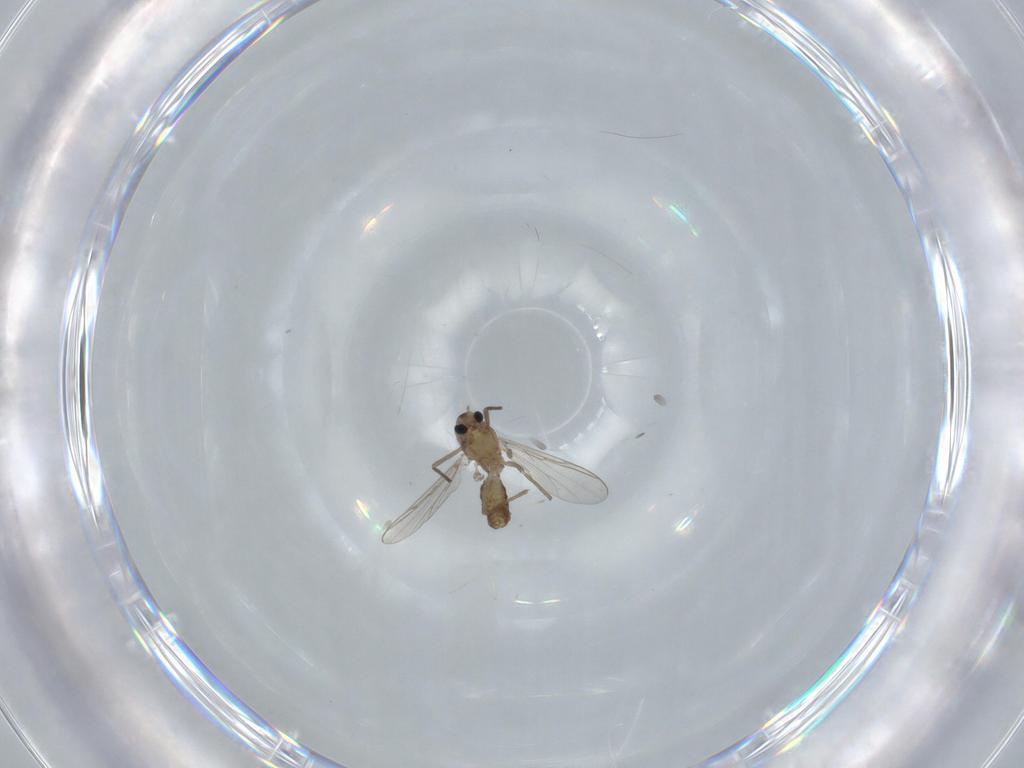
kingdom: Animalia
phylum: Arthropoda
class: Insecta
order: Diptera
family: Chironomidae
